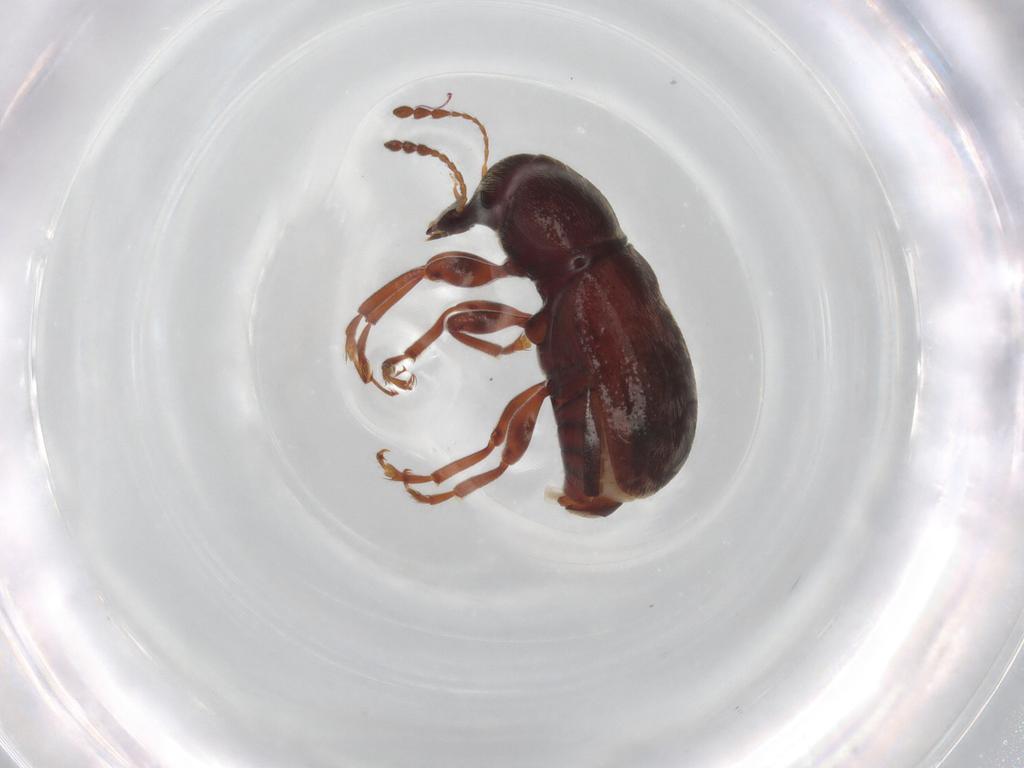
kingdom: Animalia
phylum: Arthropoda
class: Insecta
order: Coleoptera
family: Anthribidae
